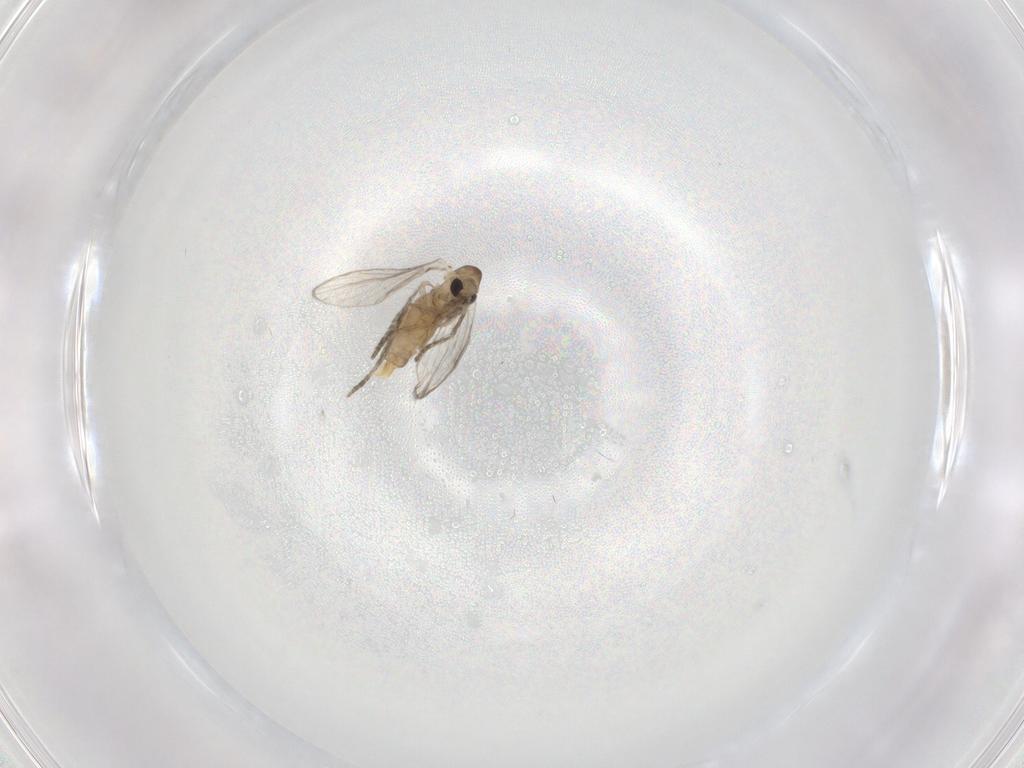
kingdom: Animalia
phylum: Arthropoda
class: Insecta
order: Diptera
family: Psychodidae
